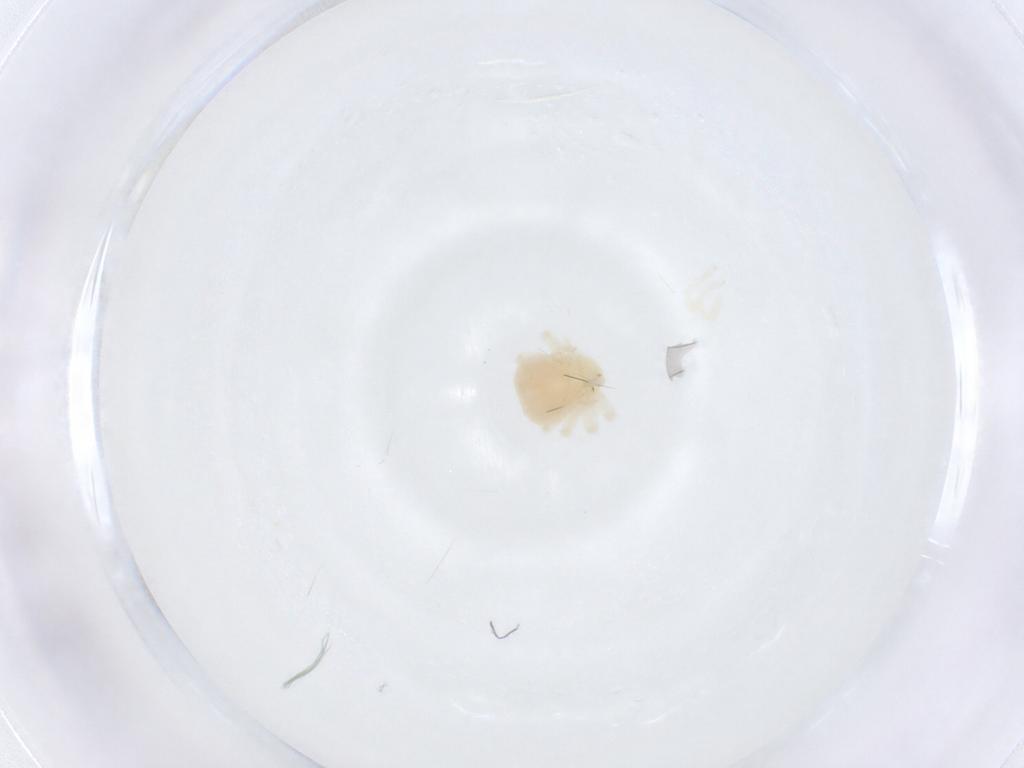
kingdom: Animalia
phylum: Arthropoda
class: Arachnida
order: Trombidiformes
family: Anystidae
